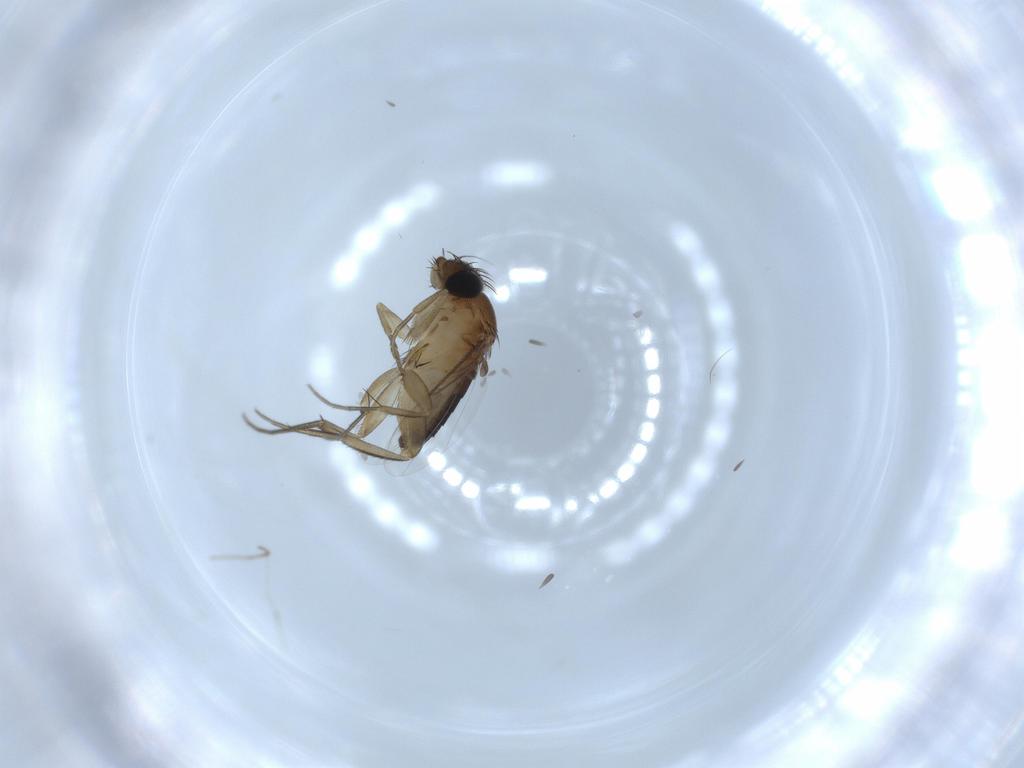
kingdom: Animalia
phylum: Arthropoda
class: Insecta
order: Diptera
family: Phoridae
